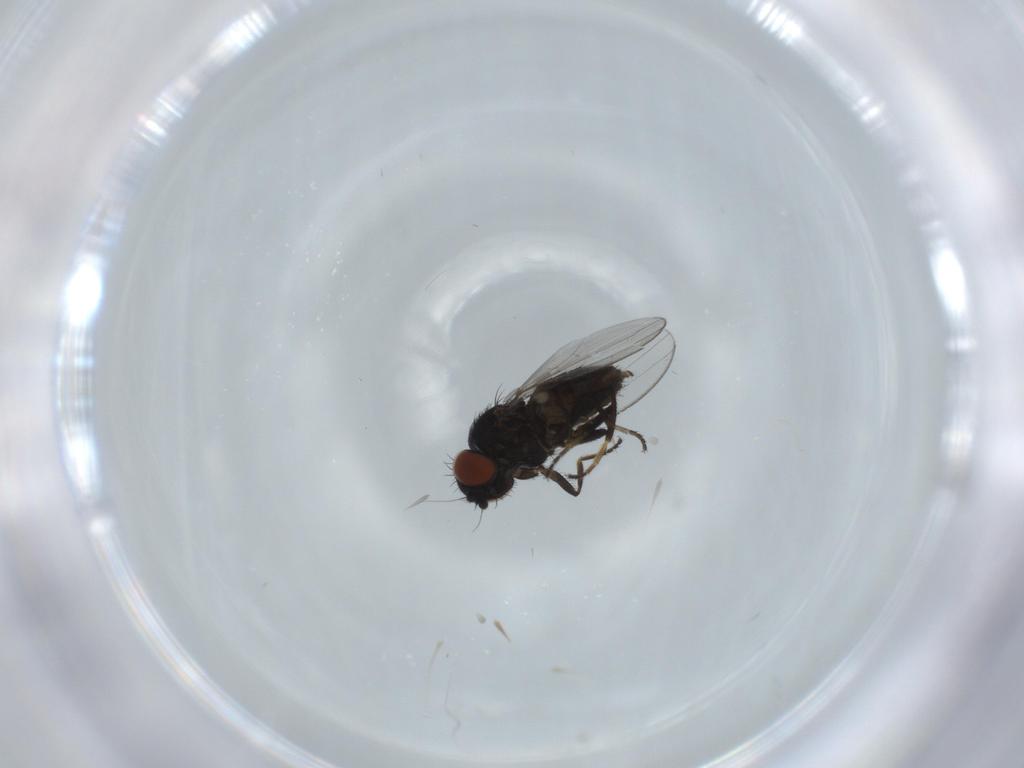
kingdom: Animalia
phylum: Arthropoda
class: Insecta
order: Diptera
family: Milichiidae
